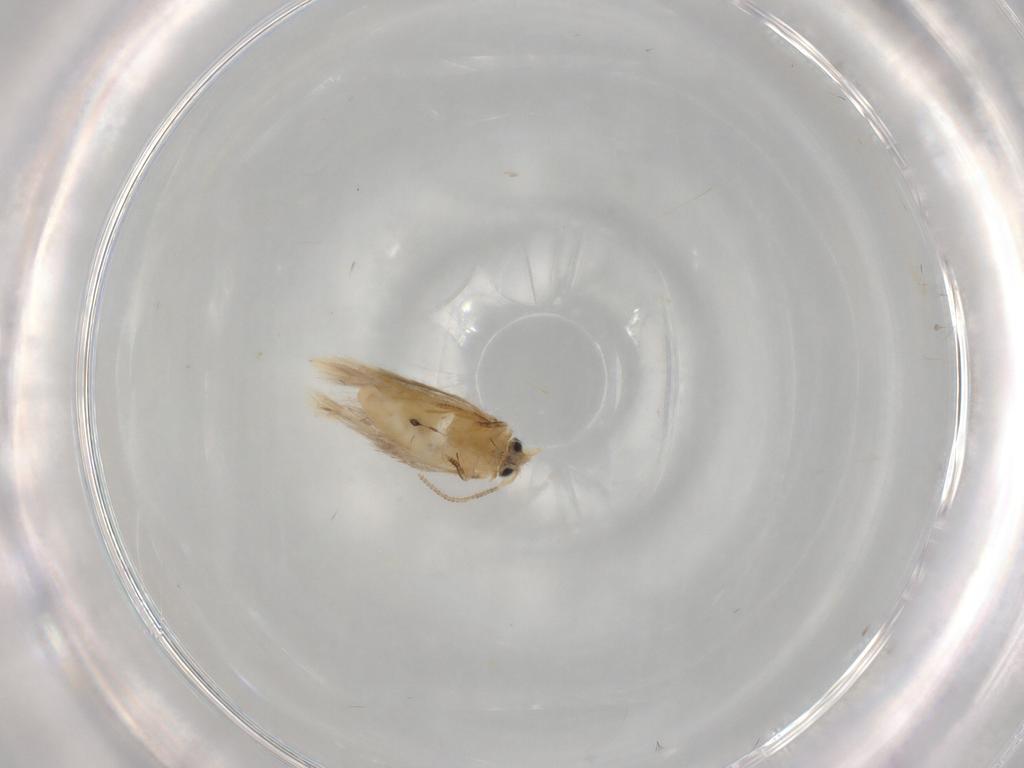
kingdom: Animalia
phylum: Arthropoda
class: Insecta
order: Lepidoptera
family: Nepticulidae
